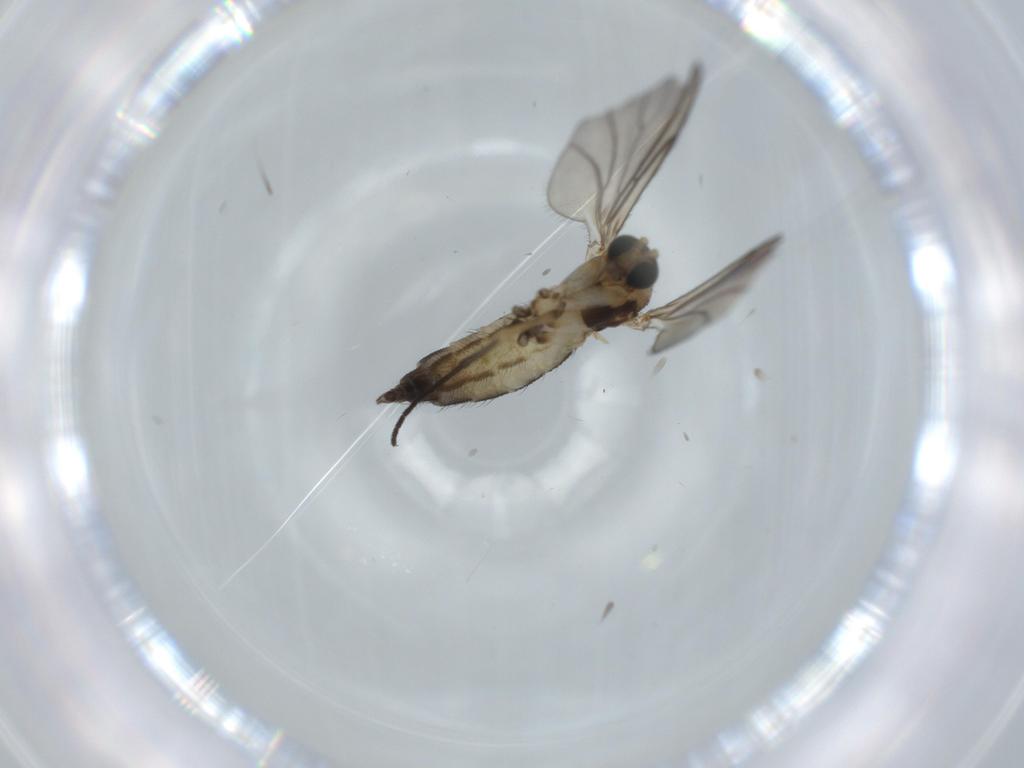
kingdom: Animalia
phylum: Arthropoda
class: Insecta
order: Diptera
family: Sciaridae
